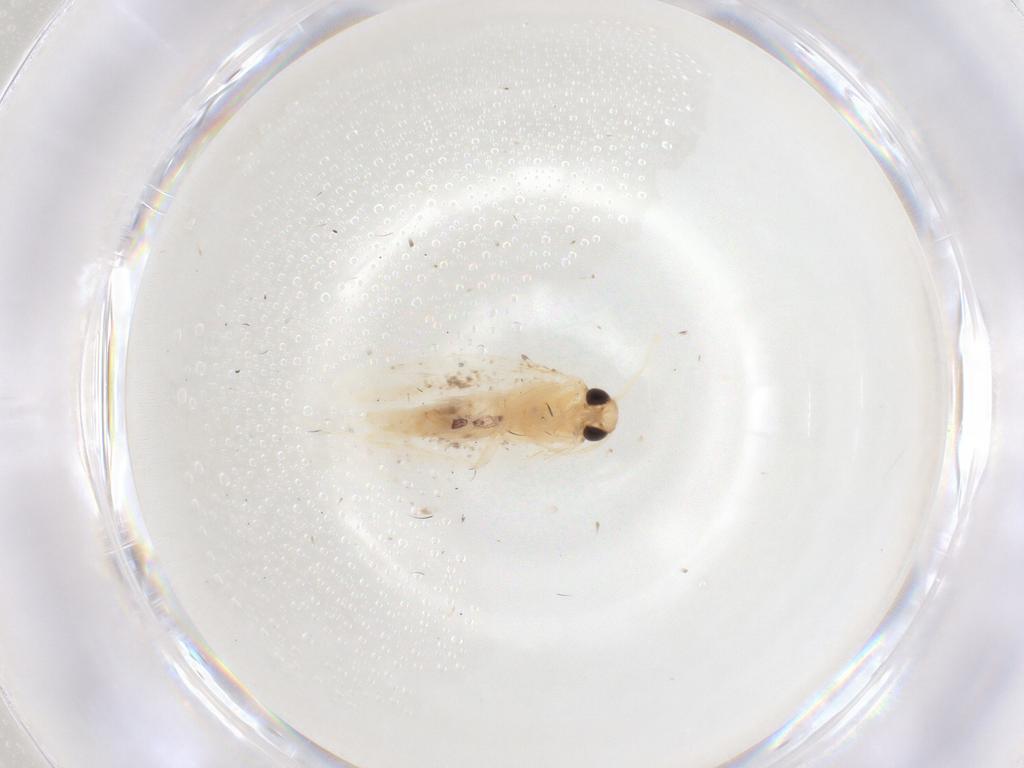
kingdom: Animalia
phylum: Arthropoda
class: Insecta
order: Lepidoptera
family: Gelechiidae
